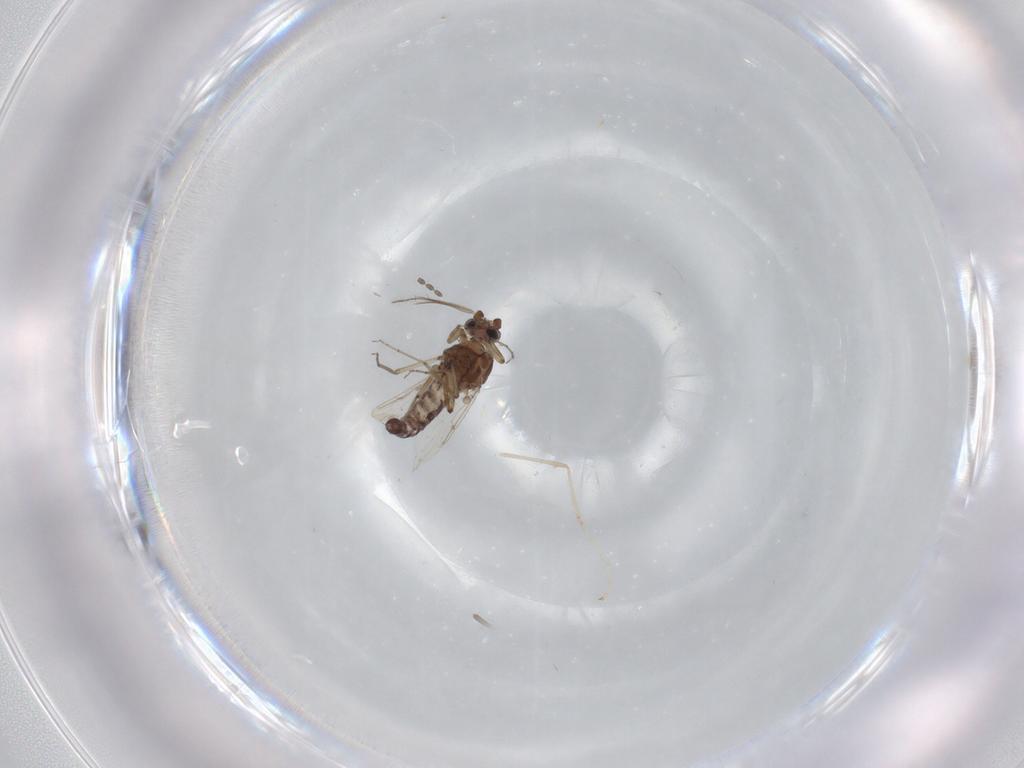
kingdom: Animalia
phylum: Arthropoda
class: Insecta
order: Diptera
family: Ceratopogonidae
